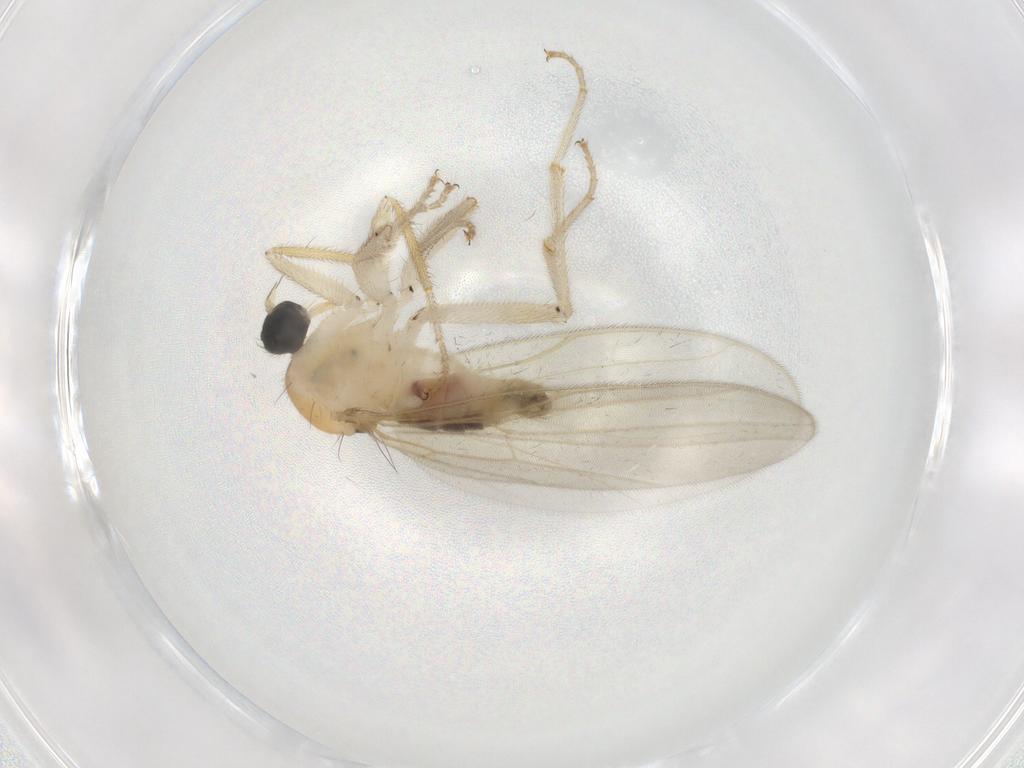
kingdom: Animalia
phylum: Arthropoda
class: Insecta
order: Diptera
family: Hybotidae
